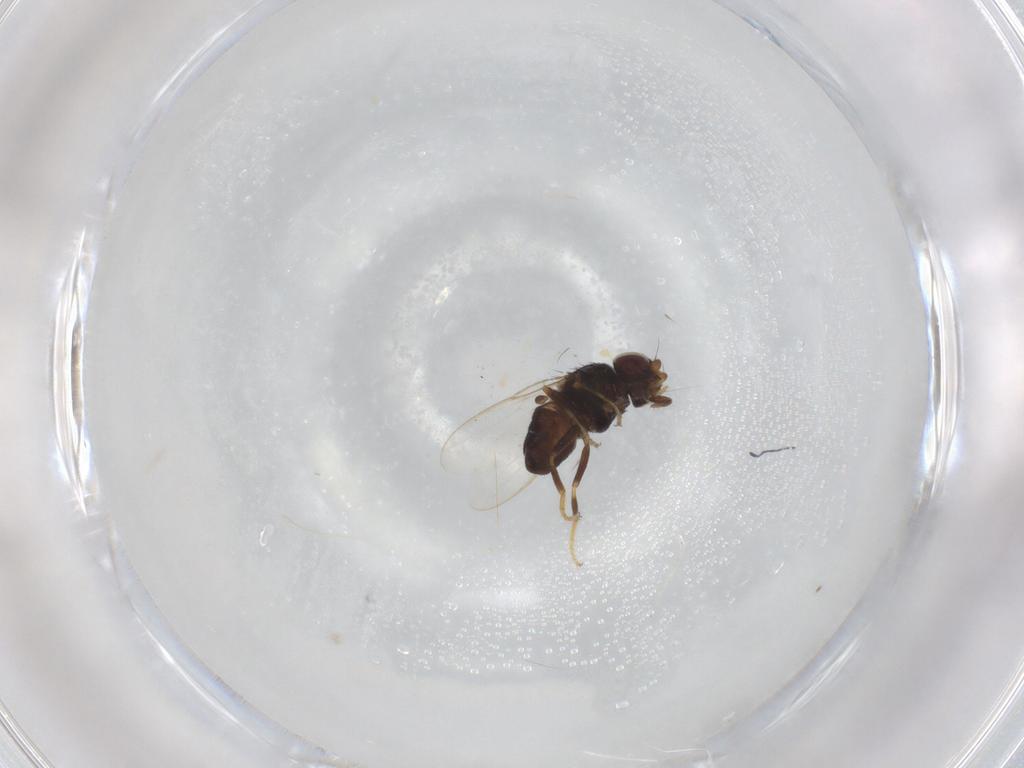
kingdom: Animalia
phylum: Arthropoda
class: Insecta
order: Diptera
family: Chloropidae
